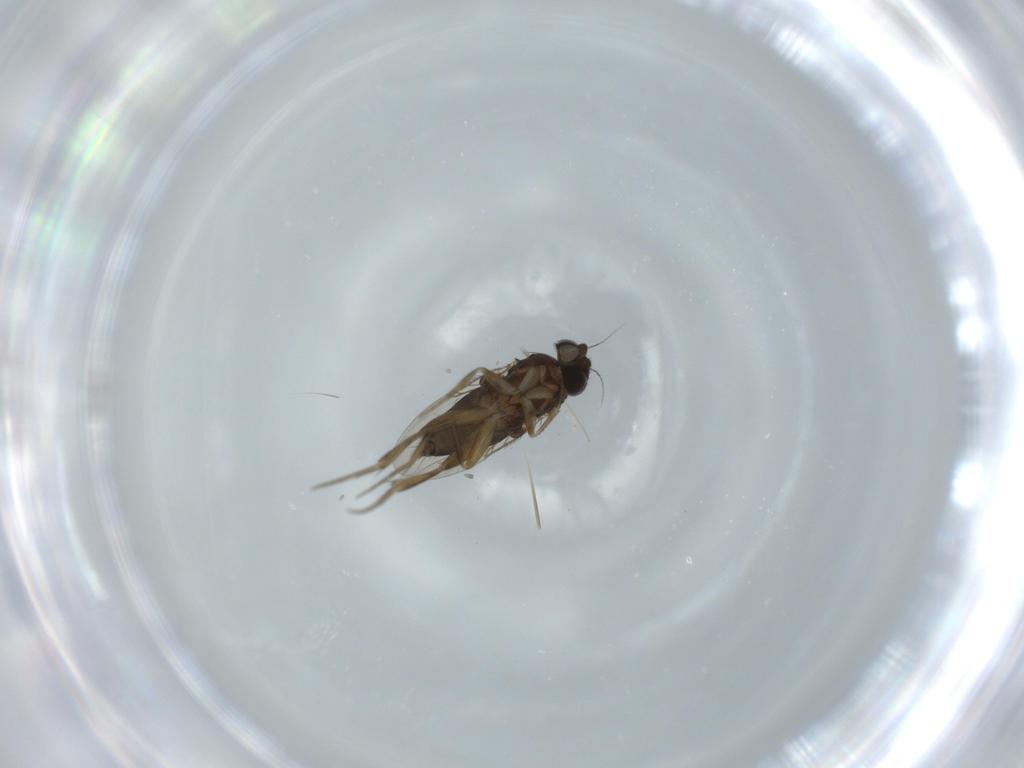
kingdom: Animalia
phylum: Arthropoda
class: Insecta
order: Diptera
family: Phoridae
